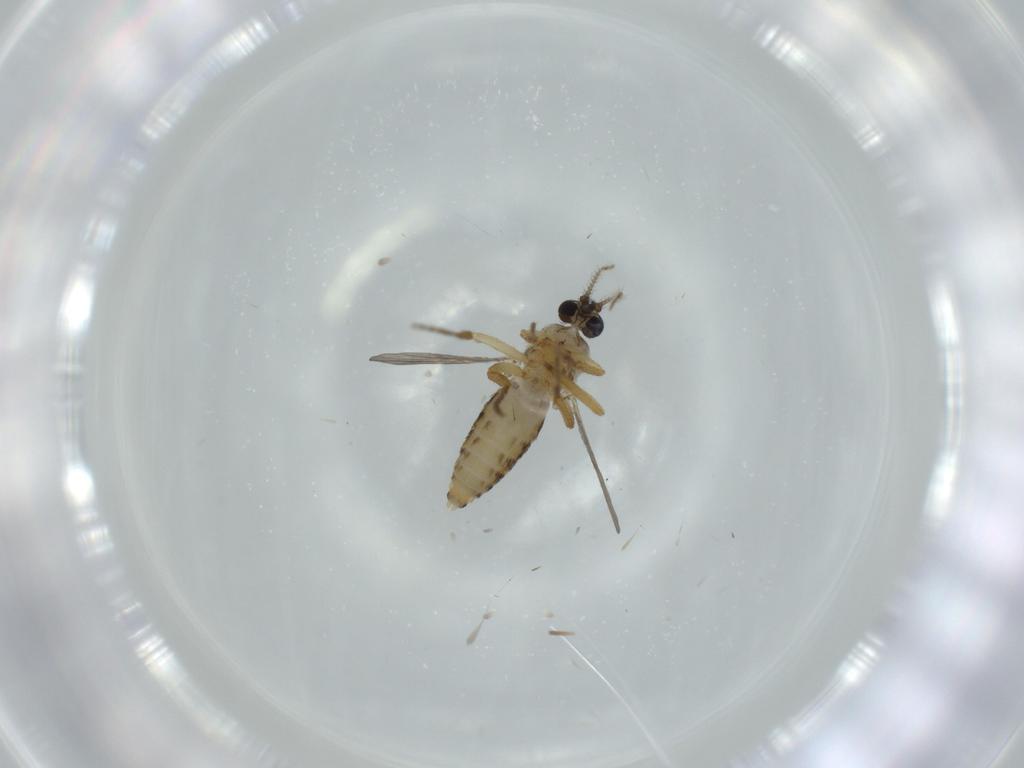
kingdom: Animalia
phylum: Arthropoda
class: Insecta
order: Diptera
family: Ceratopogonidae
